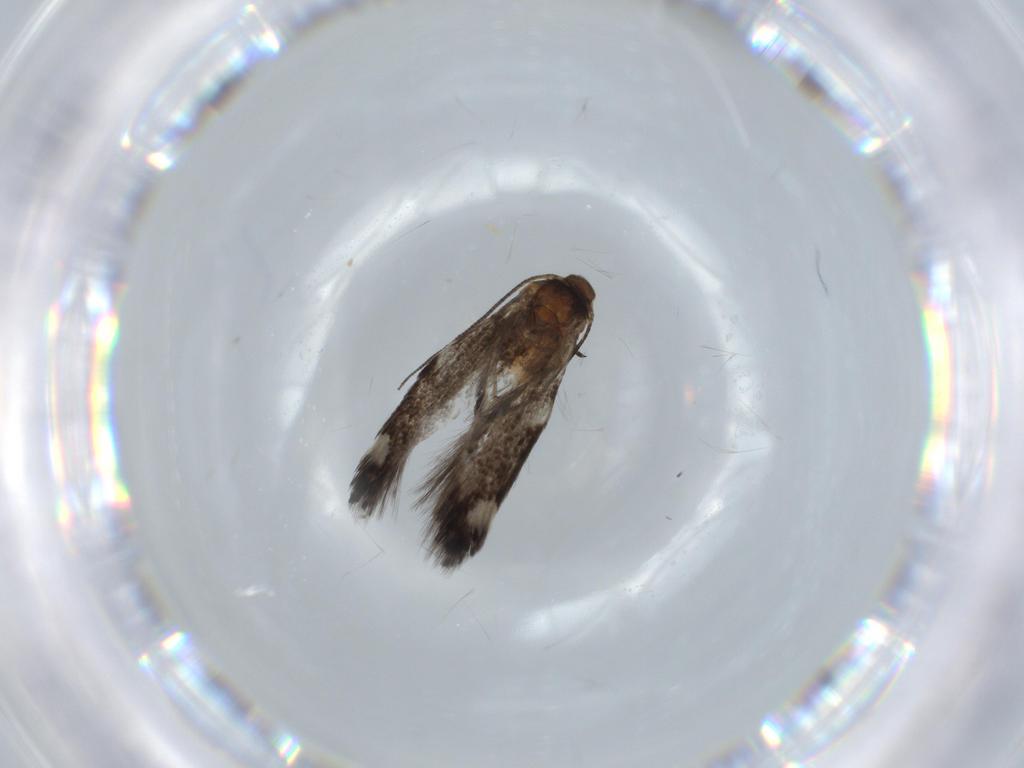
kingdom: Animalia
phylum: Arthropoda
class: Insecta
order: Lepidoptera
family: Cosmopterigidae
